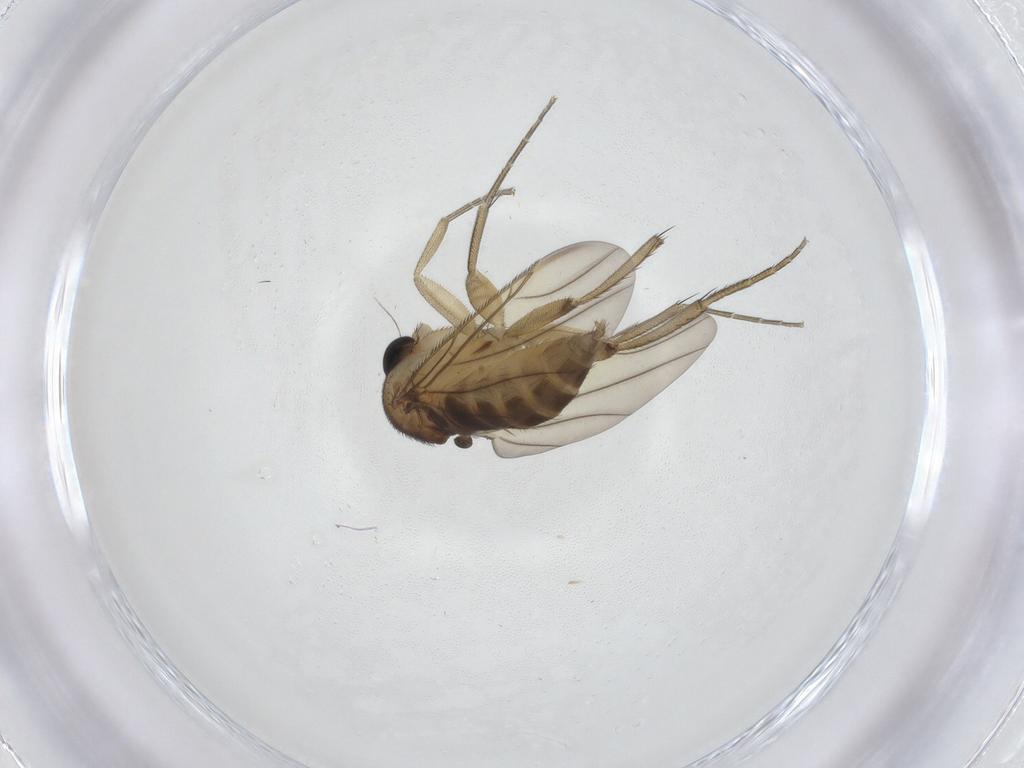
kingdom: Animalia
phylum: Arthropoda
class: Insecta
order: Diptera
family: Phoridae
